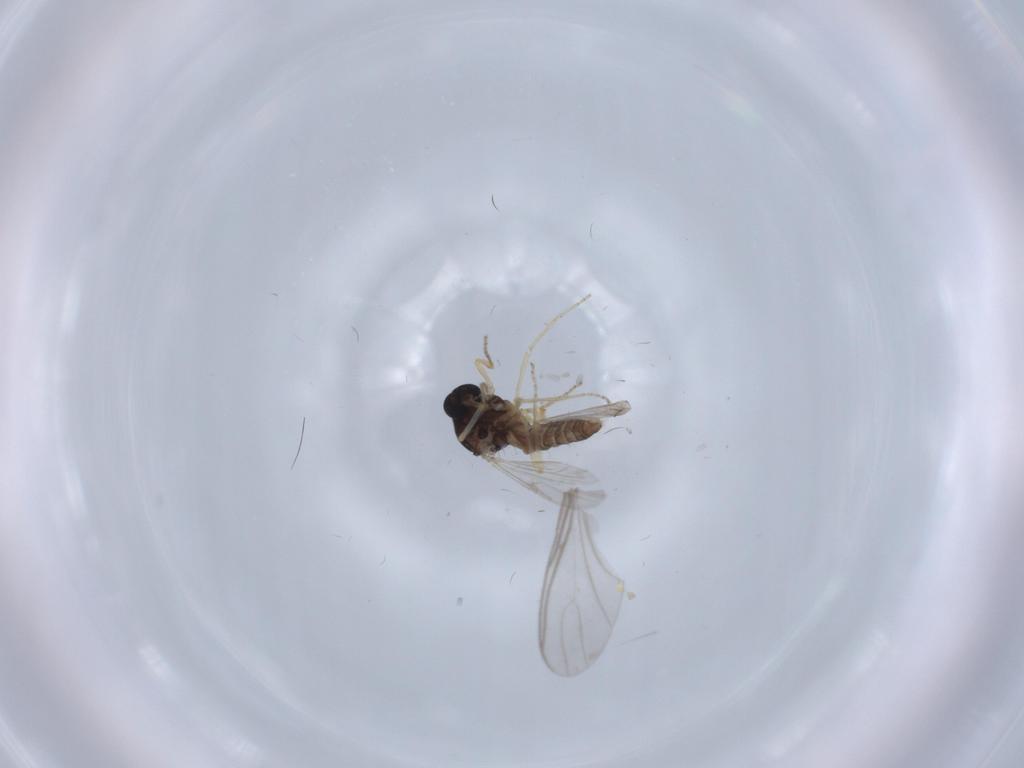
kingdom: Animalia
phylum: Arthropoda
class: Insecta
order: Diptera
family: Ceratopogonidae
